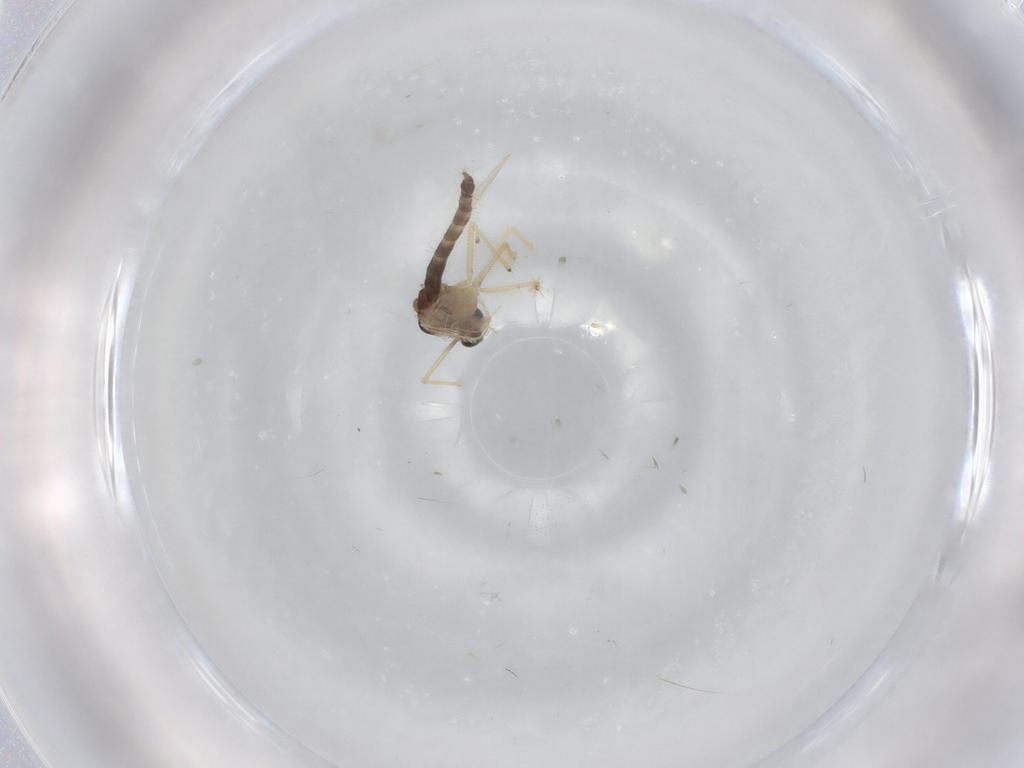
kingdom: Animalia
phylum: Arthropoda
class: Insecta
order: Diptera
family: Chironomidae
